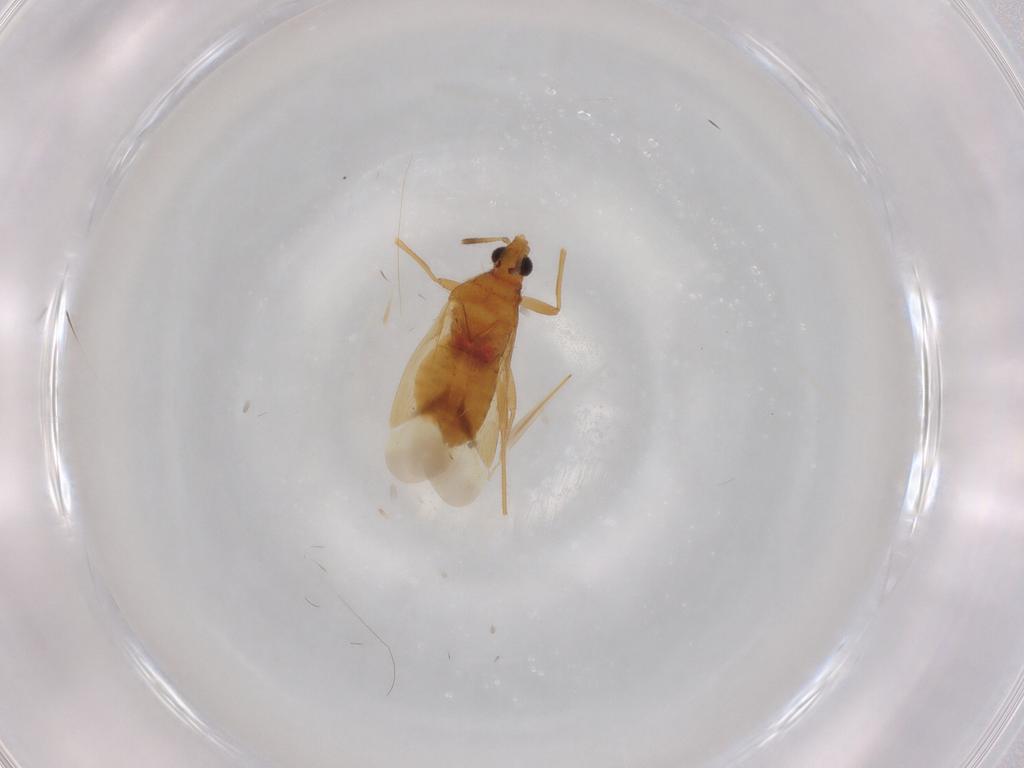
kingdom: Animalia
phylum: Arthropoda
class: Insecta
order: Hemiptera
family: Anthocoridae
